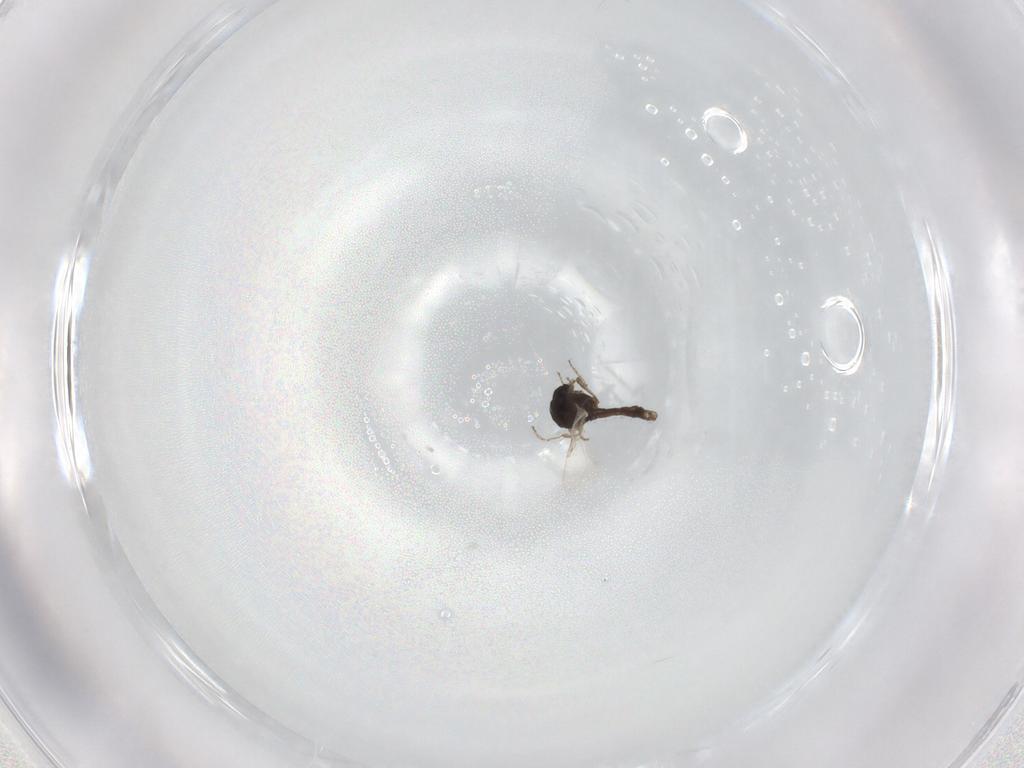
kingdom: Animalia
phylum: Arthropoda
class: Insecta
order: Diptera
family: Ceratopogonidae
